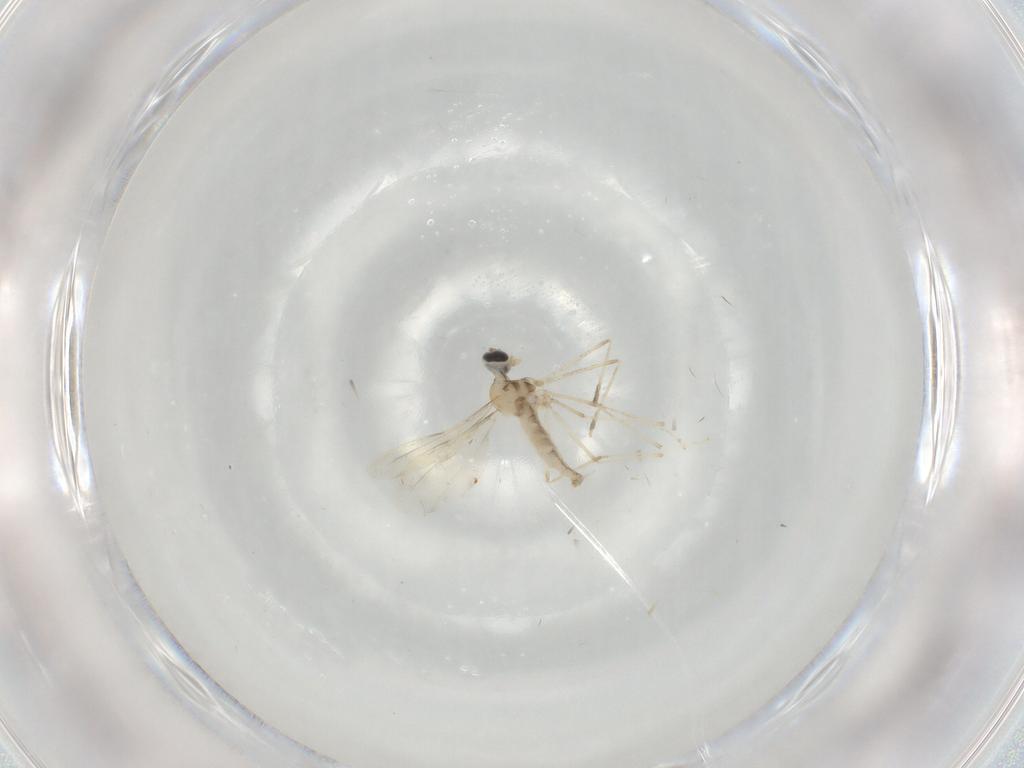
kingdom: Animalia
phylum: Arthropoda
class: Insecta
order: Diptera
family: Cecidomyiidae
